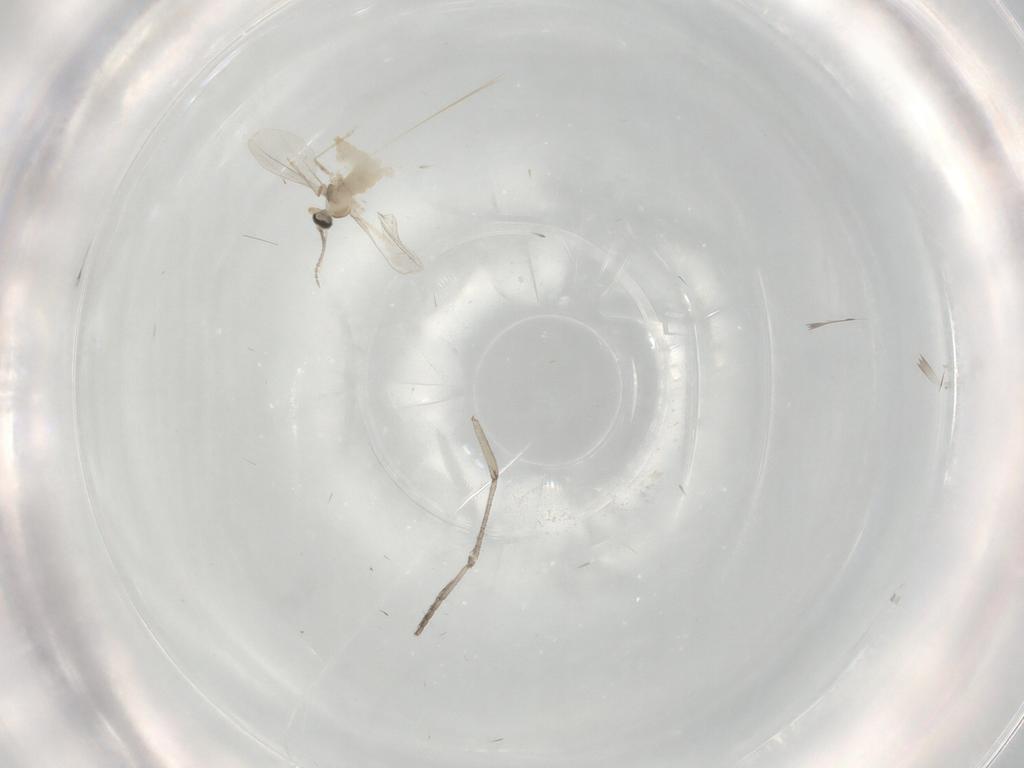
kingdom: Animalia
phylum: Arthropoda
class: Insecta
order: Diptera
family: Psychodidae
